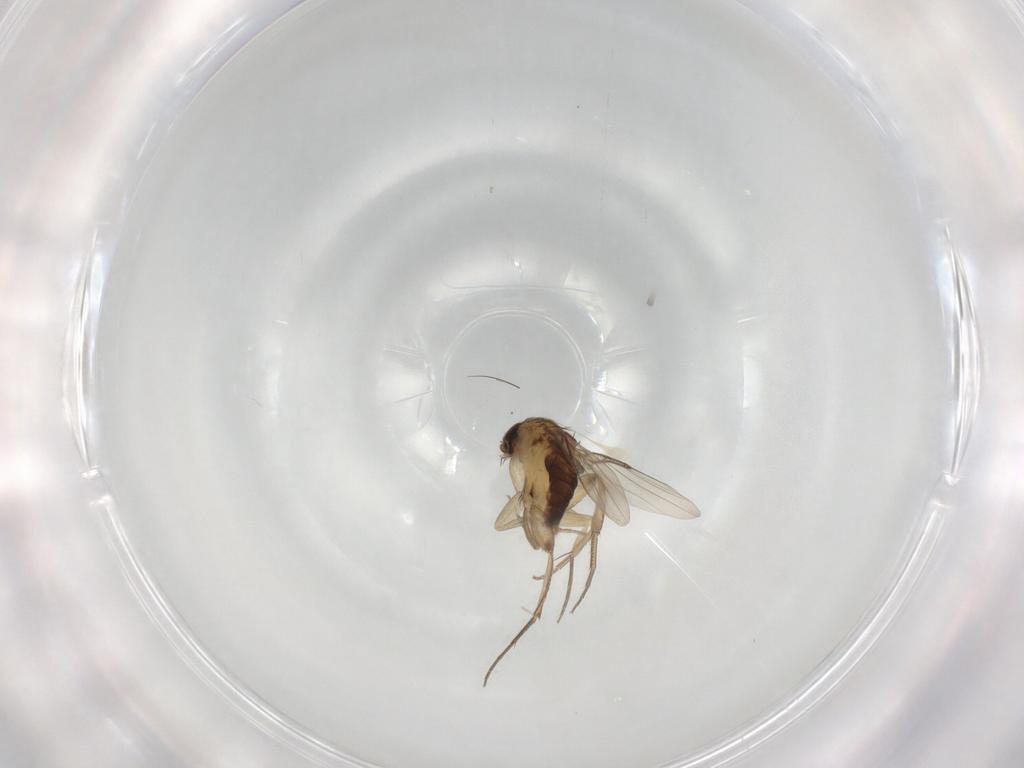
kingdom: Animalia
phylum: Arthropoda
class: Insecta
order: Diptera
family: Phoridae
